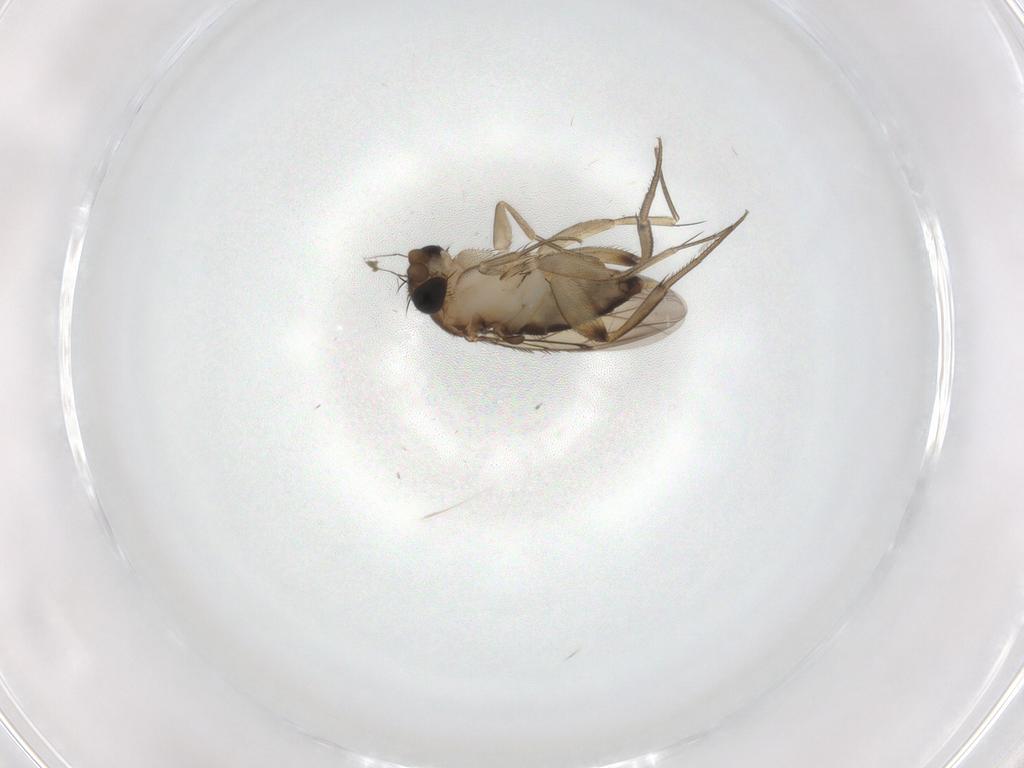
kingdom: Animalia
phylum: Arthropoda
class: Insecta
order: Diptera
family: Phoridae
